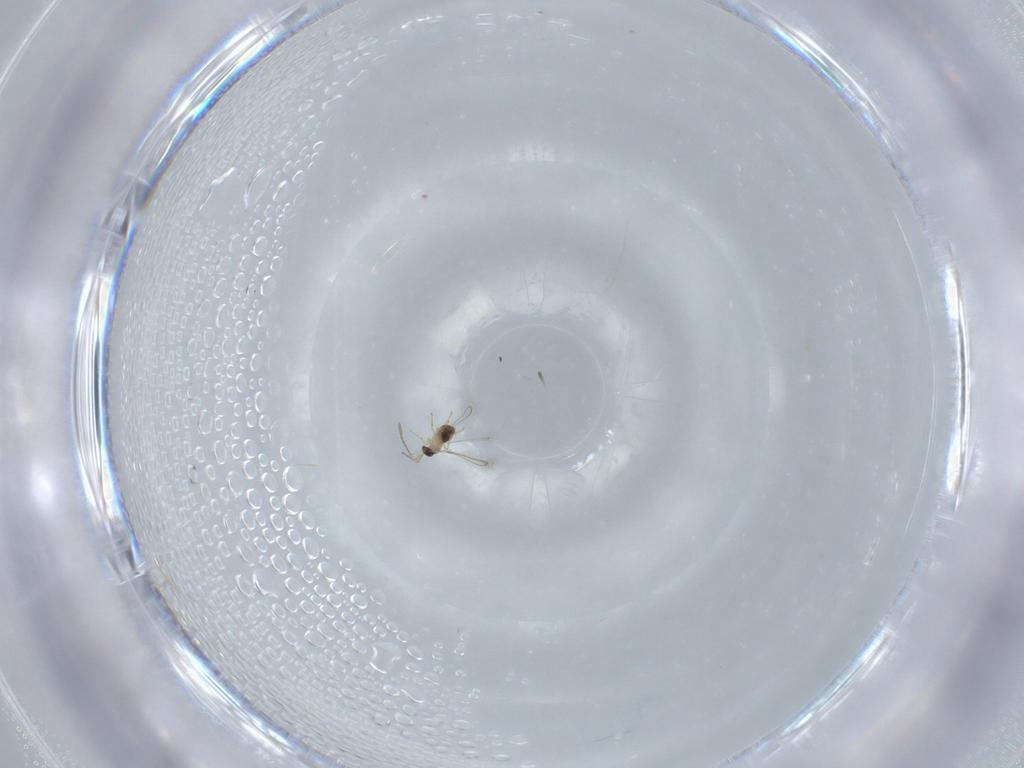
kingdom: Animalia
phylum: Arthropoda
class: Insecta
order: Hymenoptera
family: Mymaridae
